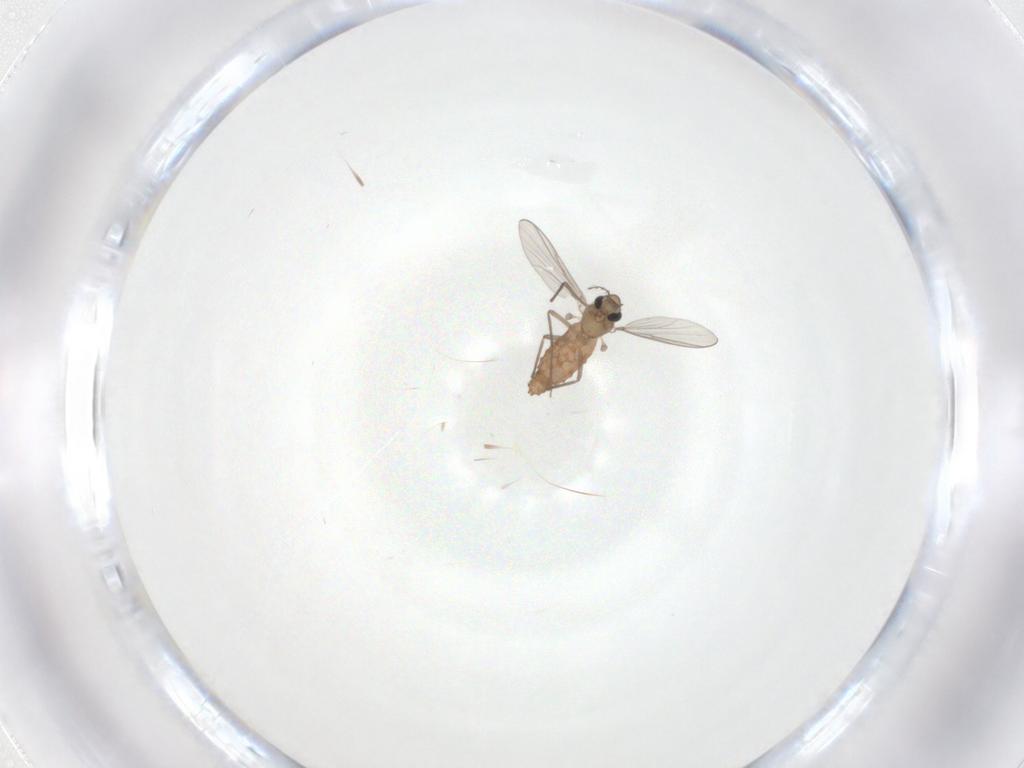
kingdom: Animalia
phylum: Arthropoda
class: Insecta
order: Diptera
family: Chironomidae
